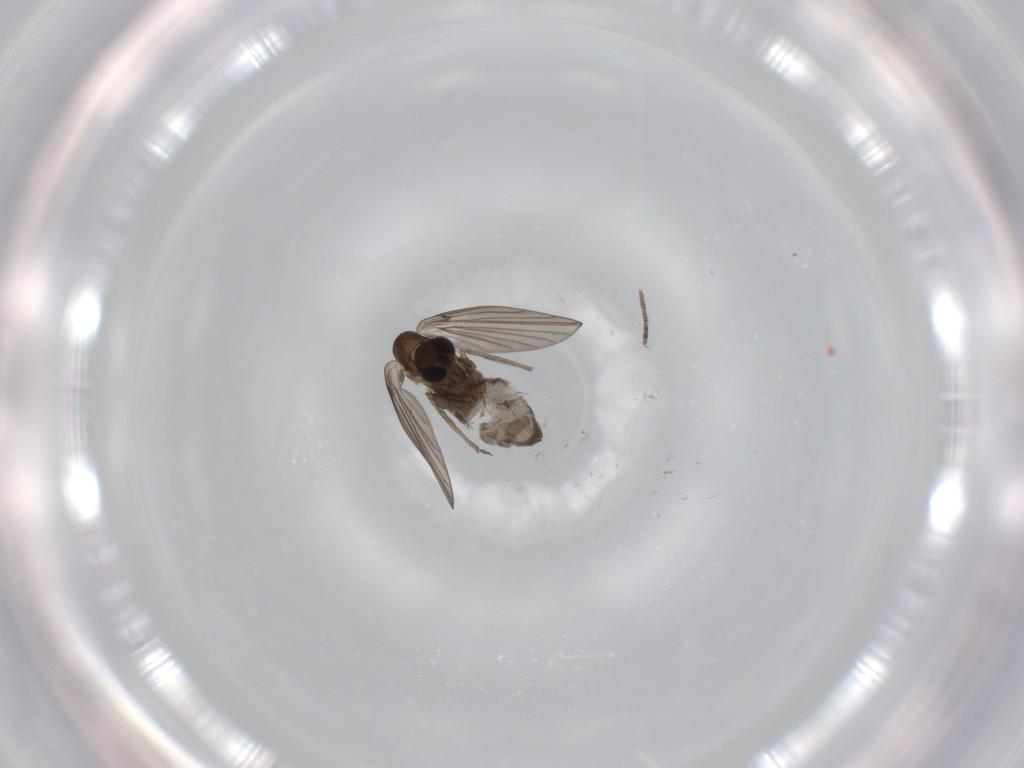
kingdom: Animalia
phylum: Arthropoda
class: Insecta
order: Diptera
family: Psychodidae
